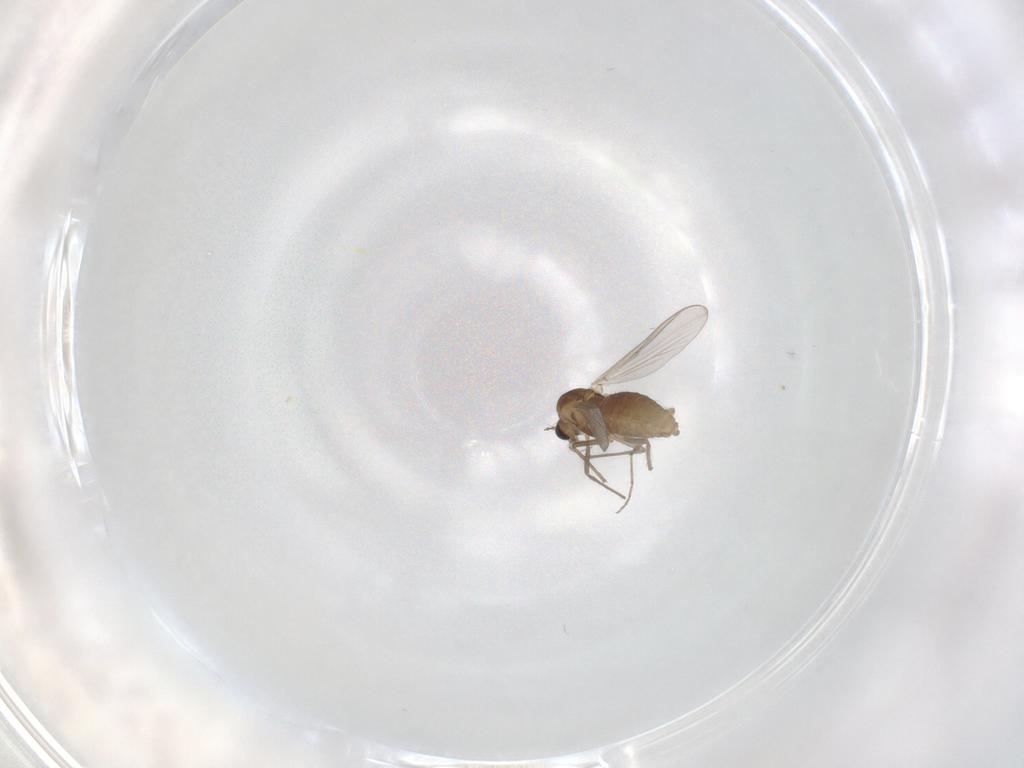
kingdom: Animalia
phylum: Arthropoda
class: Insecta
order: Diptera
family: Chironomidae
